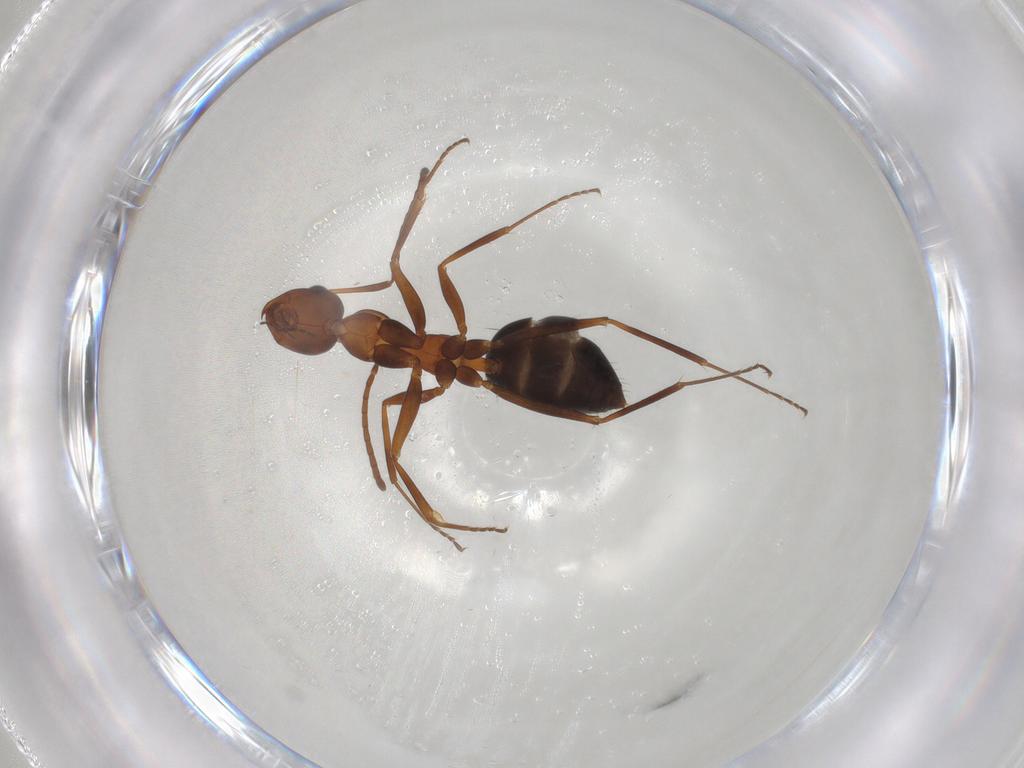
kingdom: Animalia
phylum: Arthropoda
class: Insecta
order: Hymenoptera
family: Formicidae
